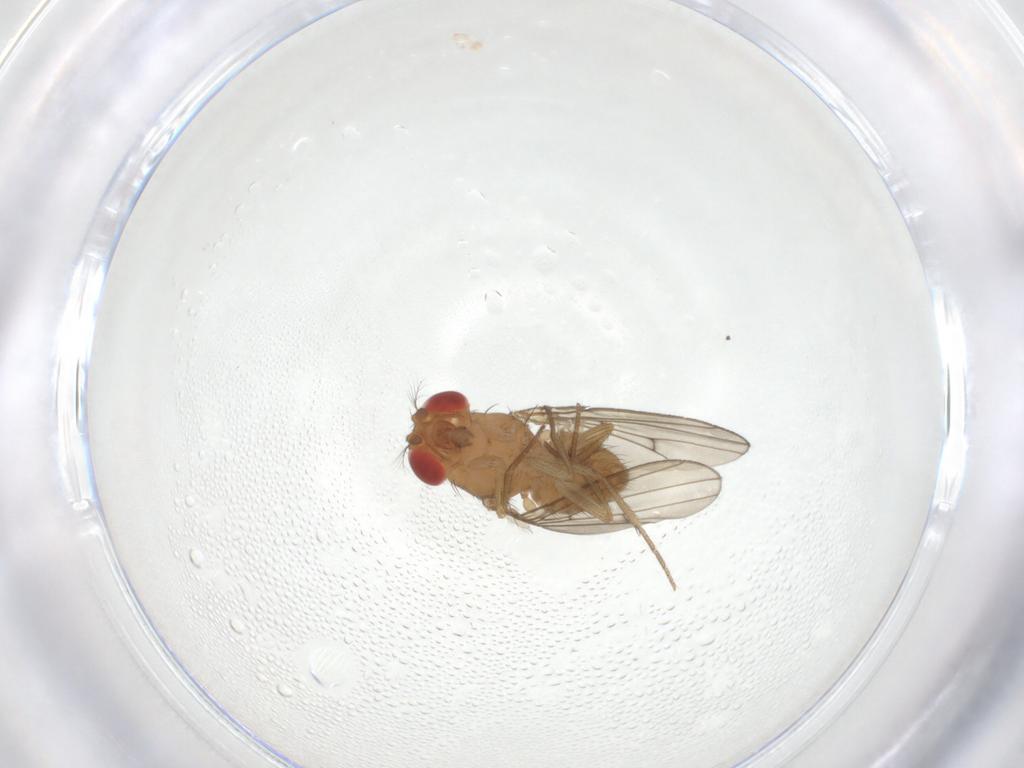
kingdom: Animalia
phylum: Arthropoda
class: Insecta
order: Diptera
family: Drosophilidae
